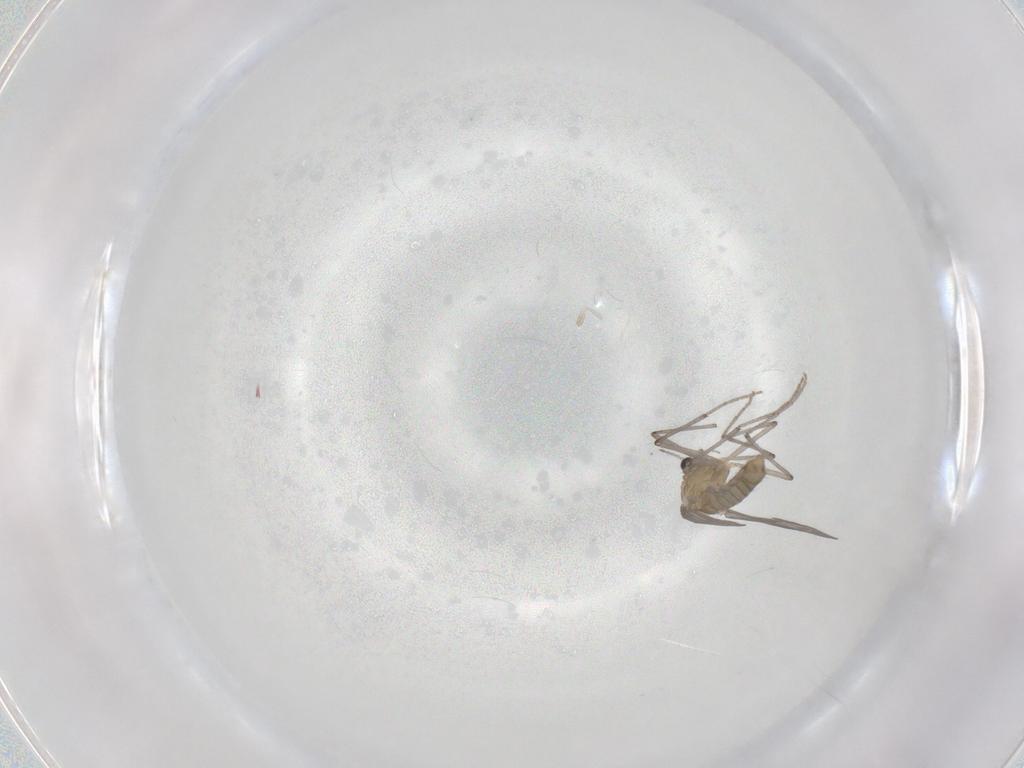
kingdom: Animalia
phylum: Arthropoda
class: Insecta
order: Diptera
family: Chironomidae
